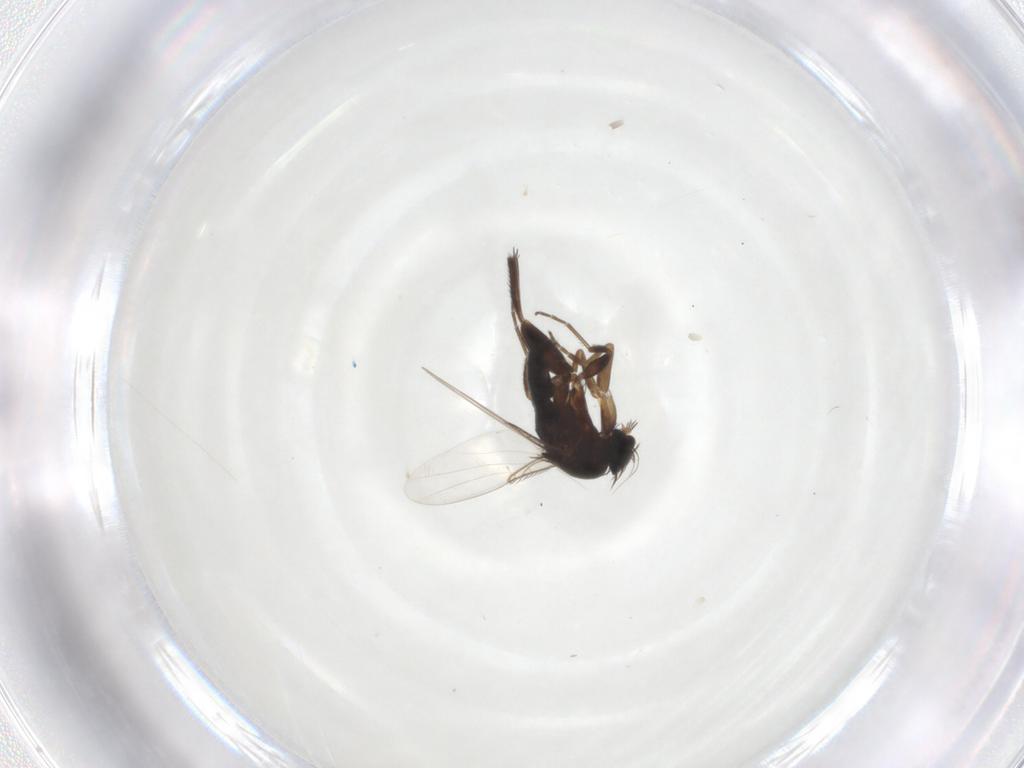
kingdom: Animalia
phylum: Arthropoda
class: Insecta
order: Diptera
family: Phoridae
